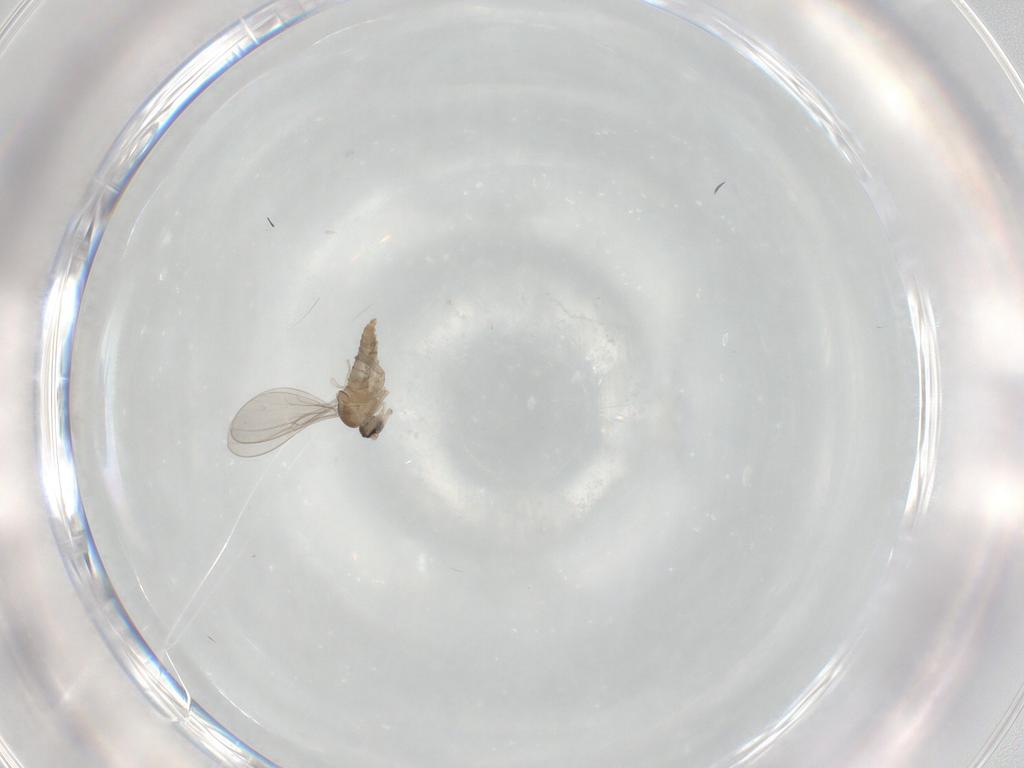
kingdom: Animalia
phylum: Arthropoda
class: Insecta
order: Diptera
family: Cecidomyiidae
